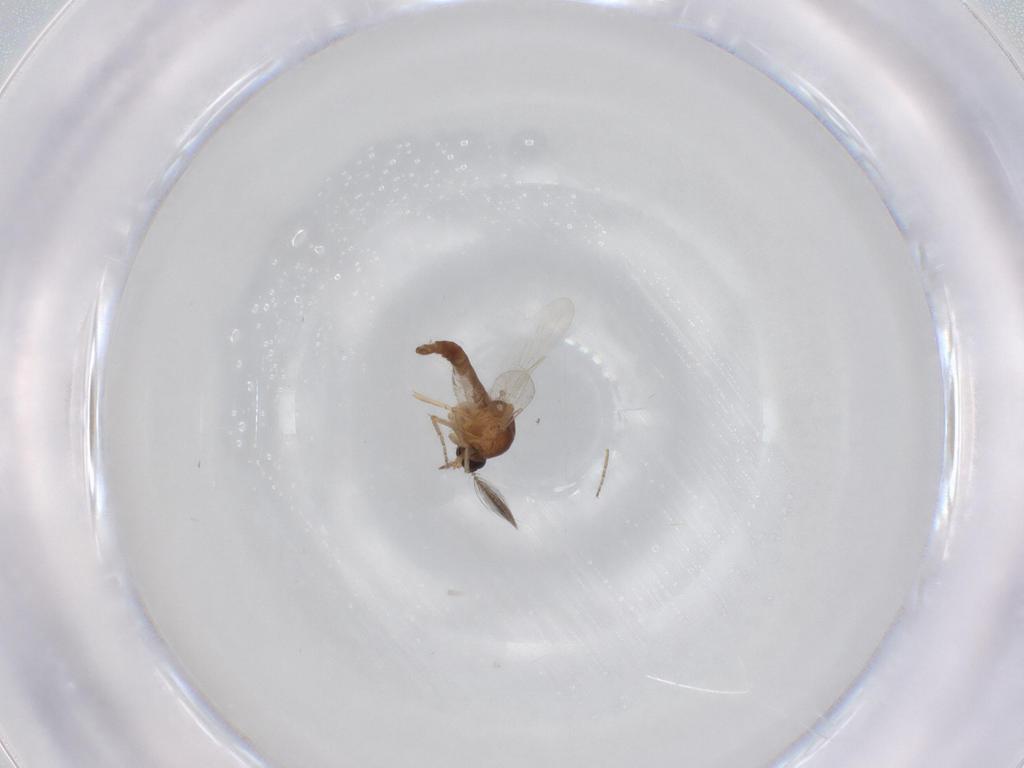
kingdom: Animalia
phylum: Arthropoda
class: Insecta
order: Diptera
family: Ceratopogonidae
